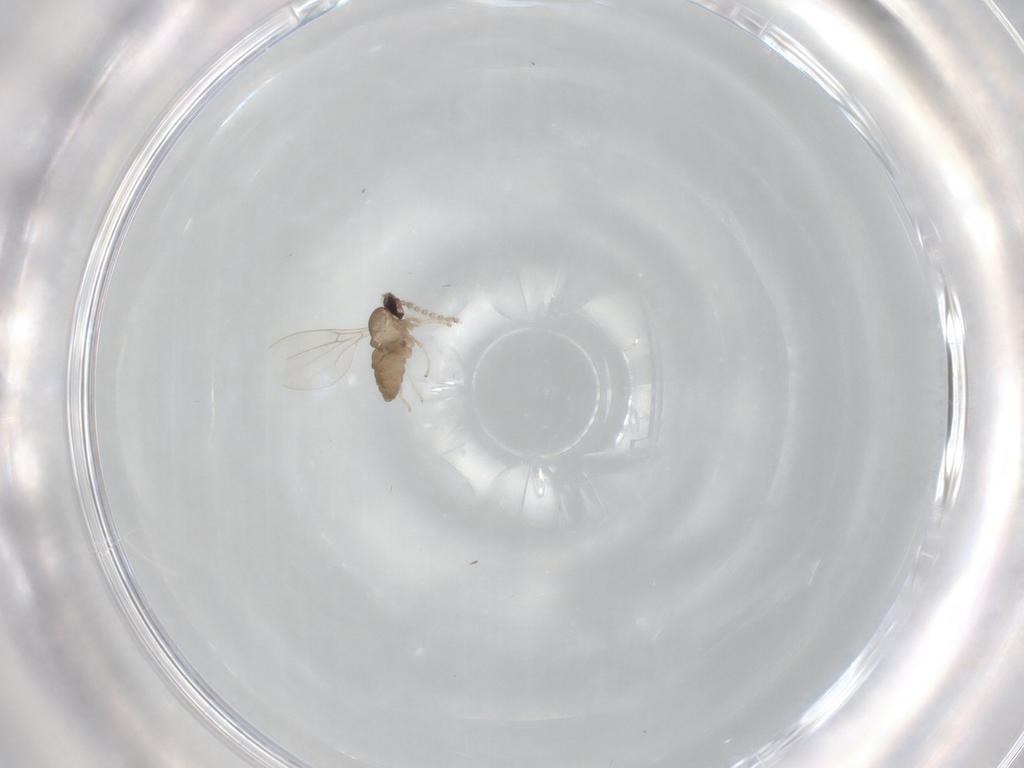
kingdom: Animalia
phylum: Arthropoda
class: Insecta
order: Diptera
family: Cecidomyiidae
